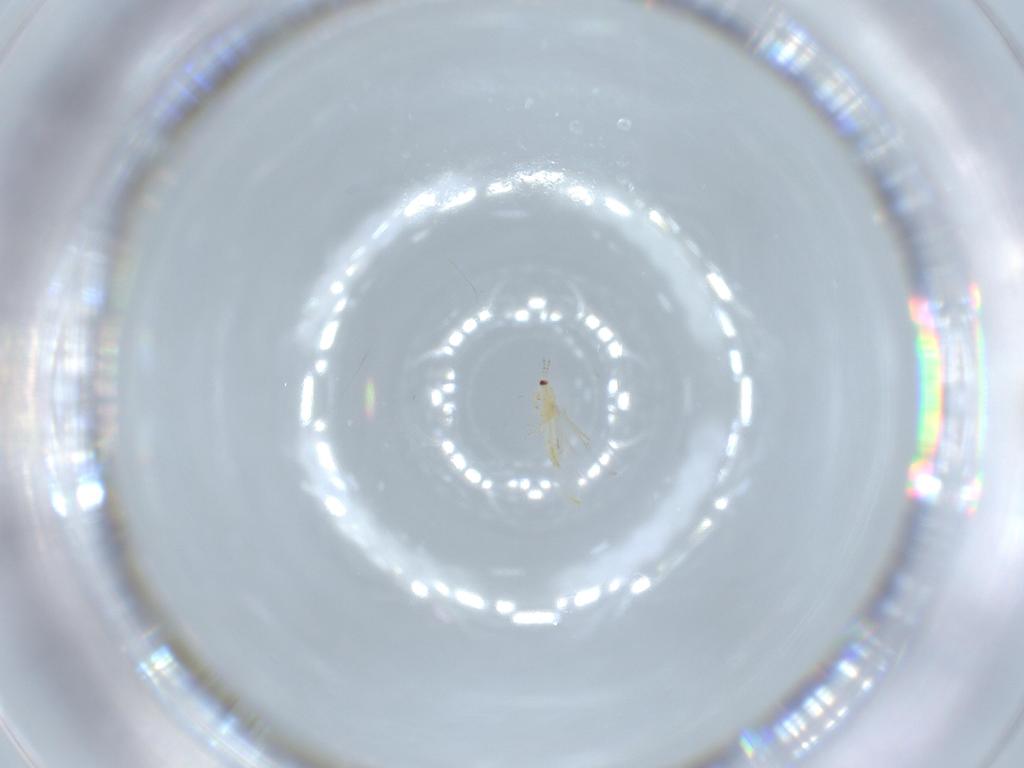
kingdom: Animalia
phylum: Arthropoda
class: Insecta
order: Thysanoptera
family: Thripidae
